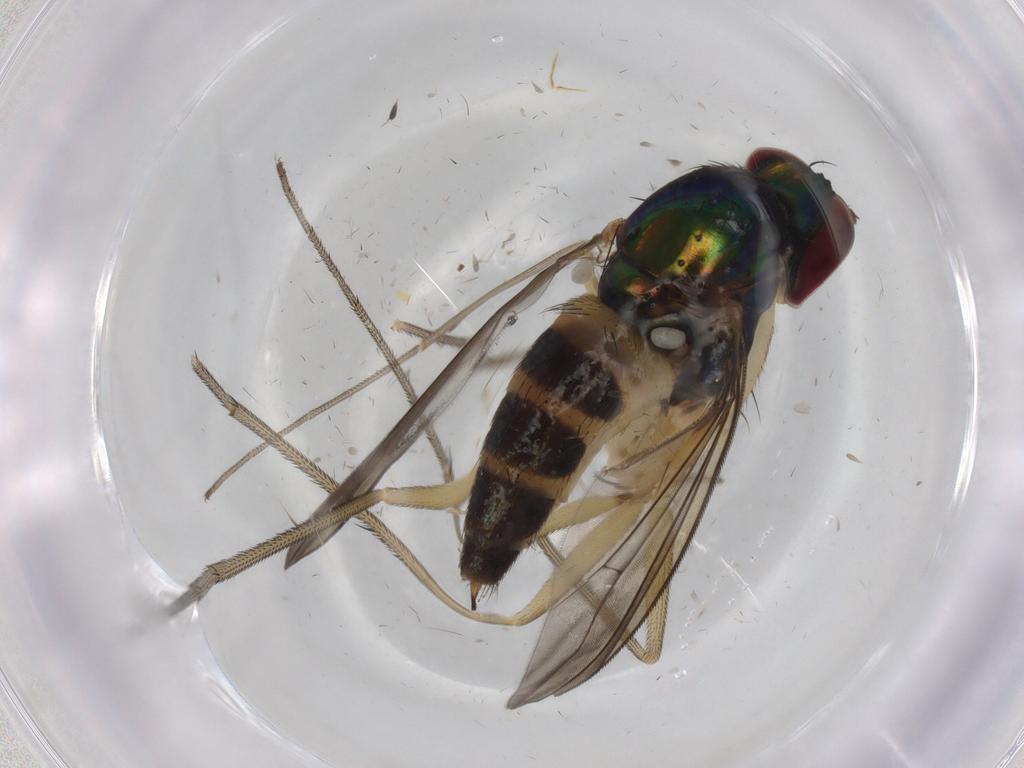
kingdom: Animalia
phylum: Arthropoda
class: Insecta
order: Diptera
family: Phoridae
